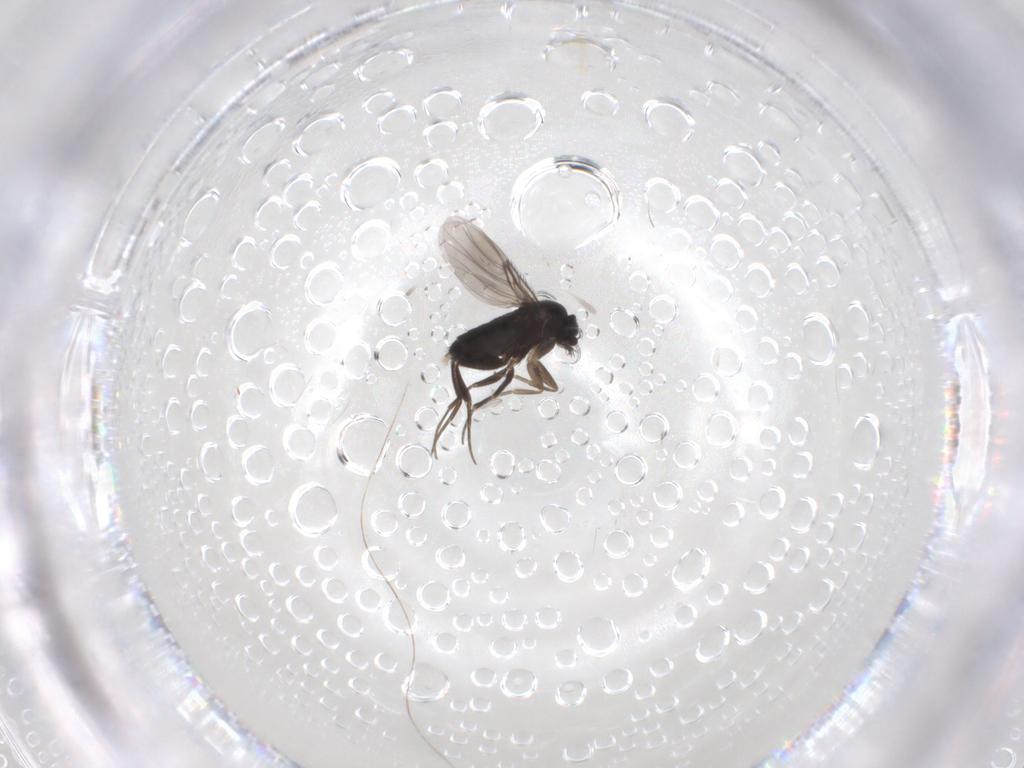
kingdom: Animalia
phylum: Arthropoda
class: Insecta
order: Diptera
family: Phoridae
